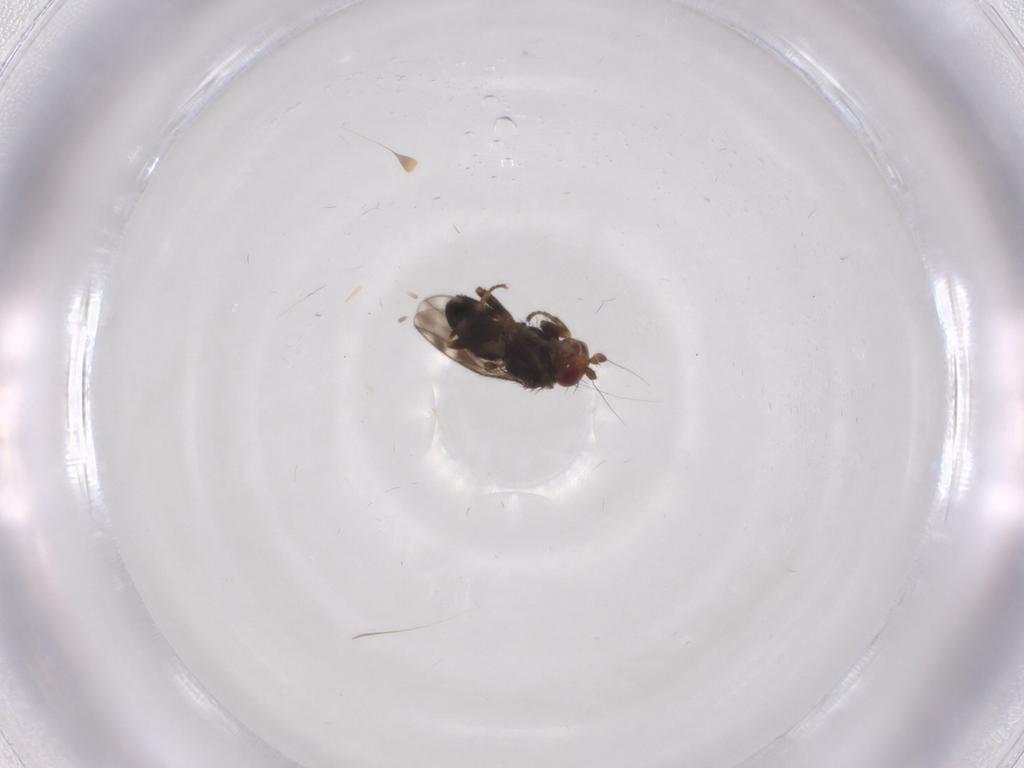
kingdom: Animalia
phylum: Arthropoda
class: Insecta
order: Diptera
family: Sphaeroceridae
